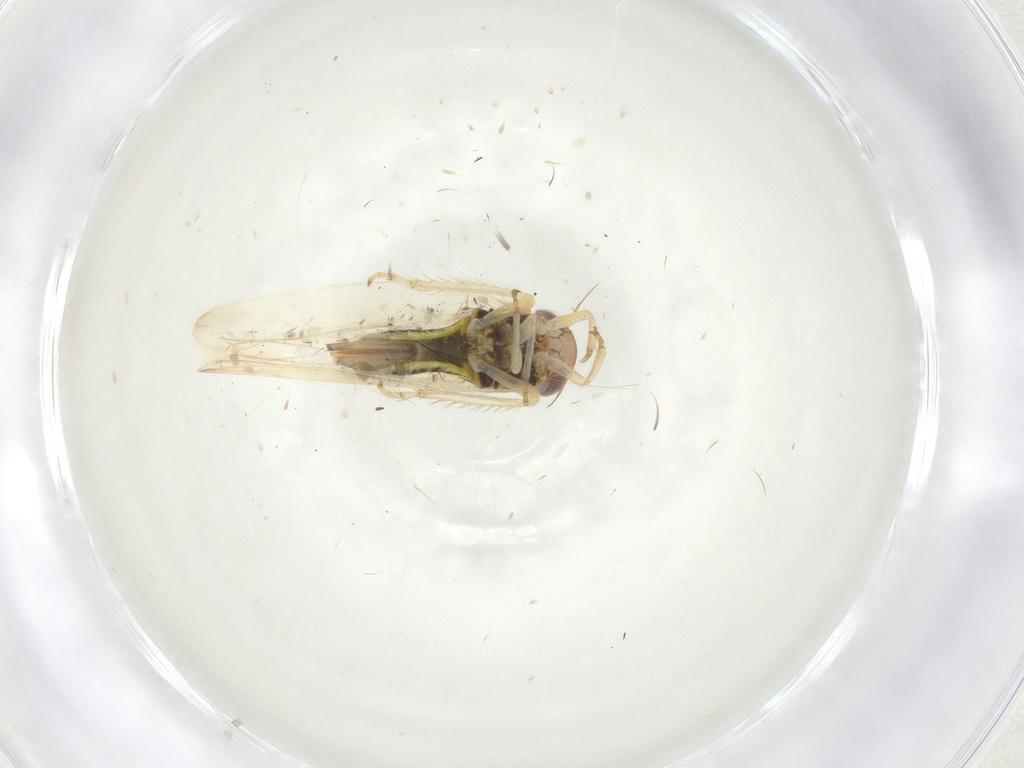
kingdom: Animalia
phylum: Arthropoda
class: Insecta
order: Hemiptera
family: Cicadellidae
